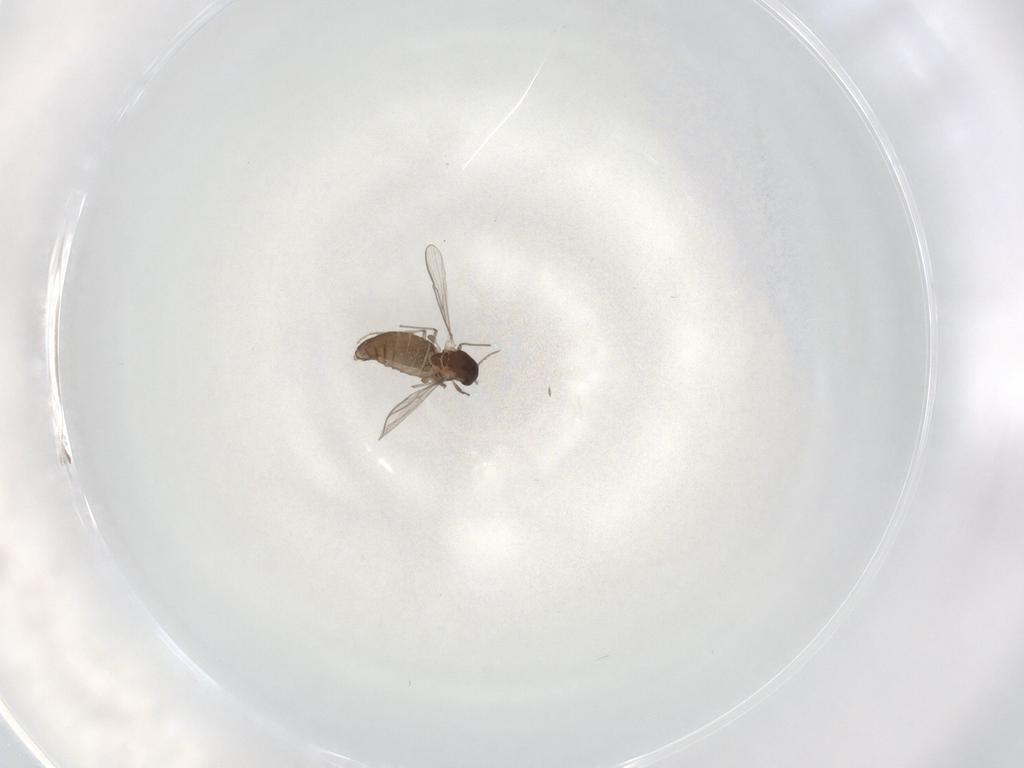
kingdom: Animalia
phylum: Arthropoda
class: Insecta
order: Diptera
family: Chironomidae
